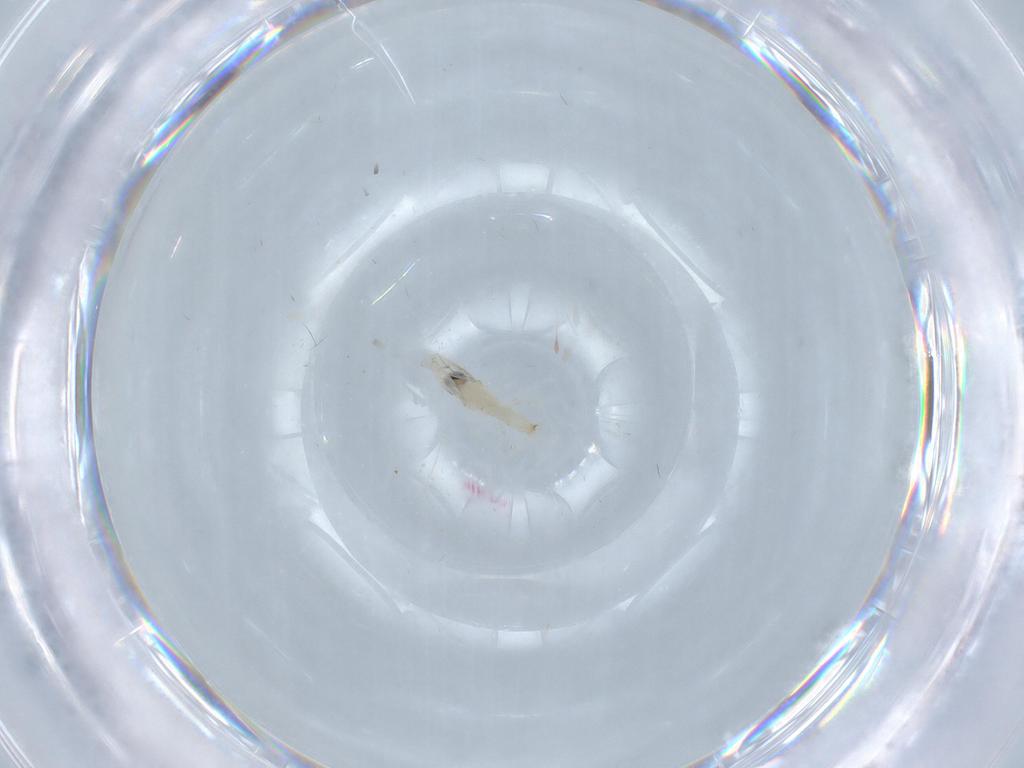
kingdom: Animalia
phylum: Arthropoda
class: Insecta
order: Diptera
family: Cecidomyiidae
